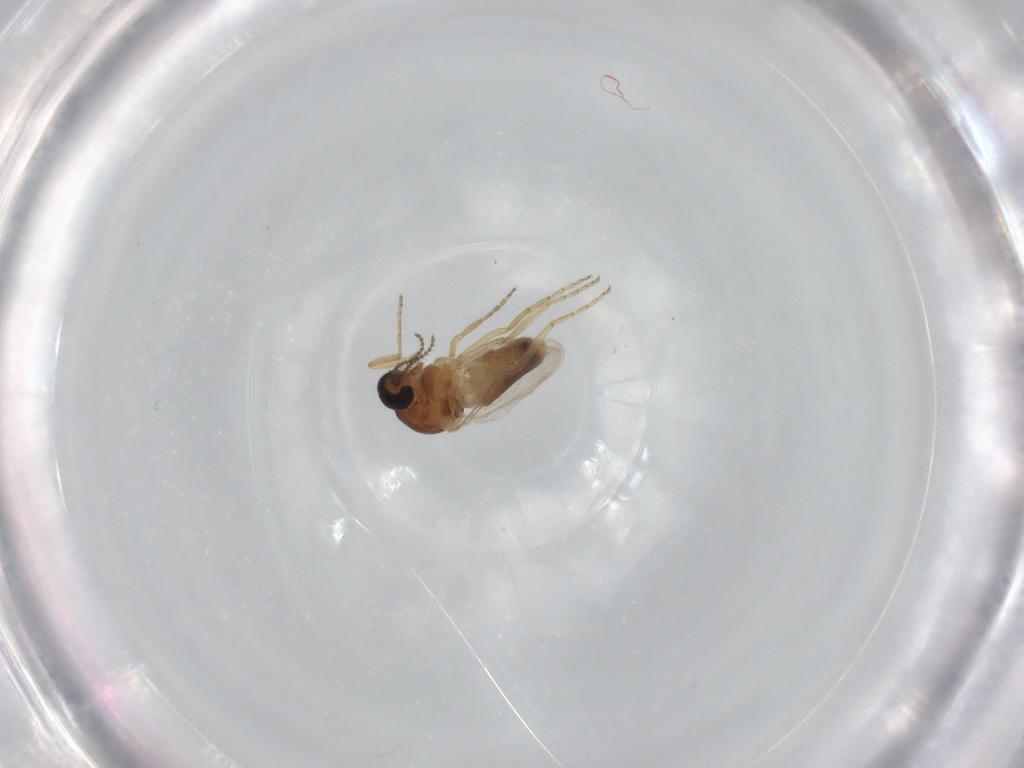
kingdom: Animalia
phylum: Arthropoda
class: Insecta
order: Diptera
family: Ceratopogonidae
